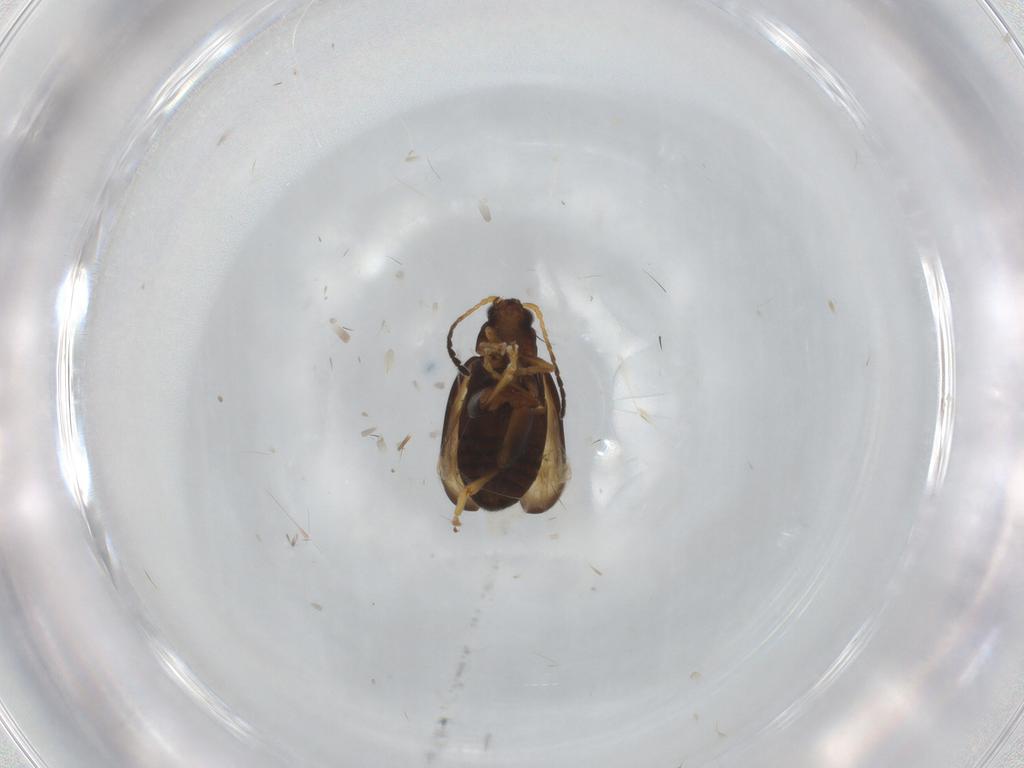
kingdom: Animalia
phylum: Arthropoda
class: Insecta
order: Coleoptera
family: Chrysomelidae
